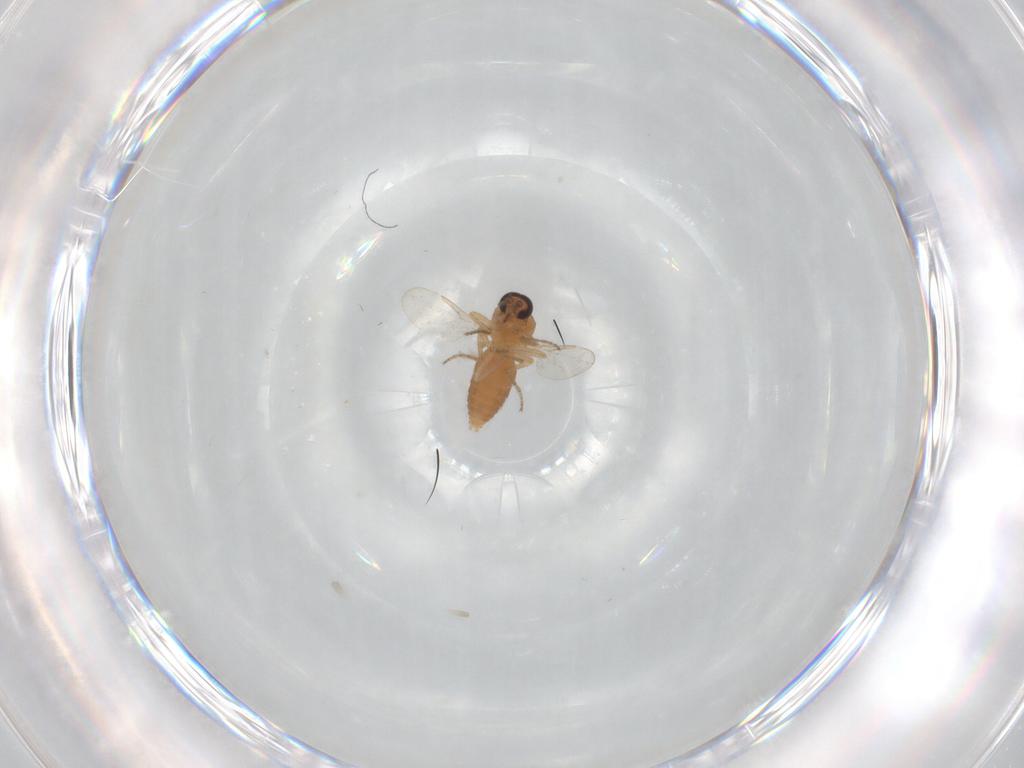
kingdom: Animalia
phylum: Arthropoda
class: Insecta
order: Diptera
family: Ceratopogonidae
